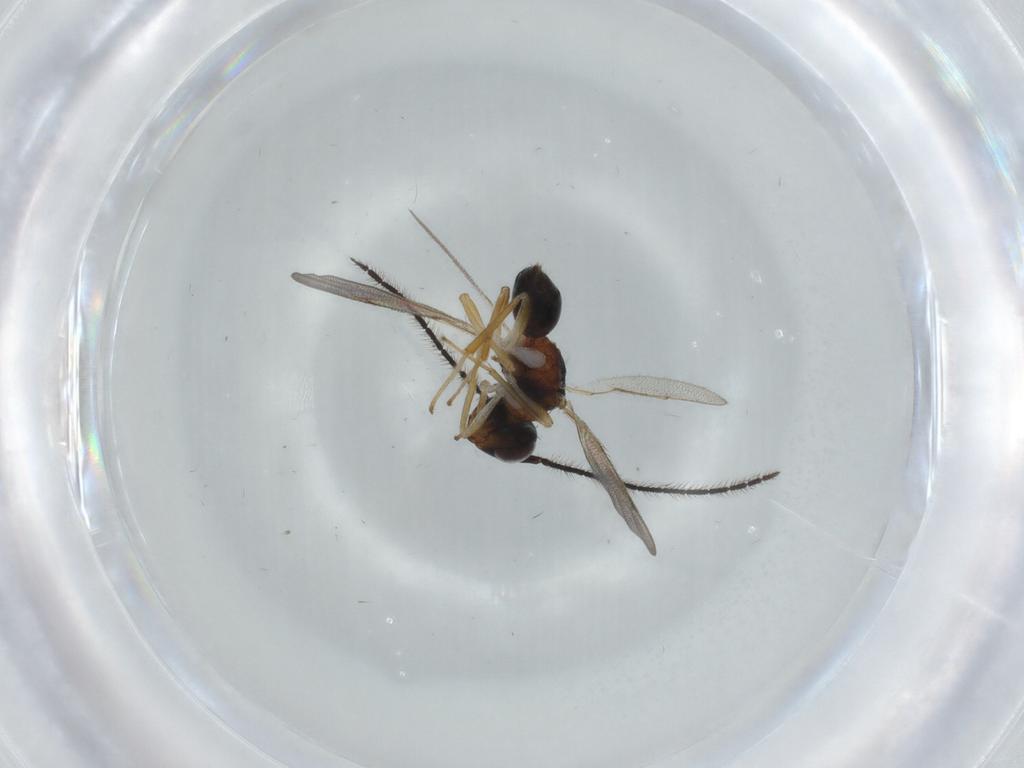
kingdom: Animalia
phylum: Arthropoda
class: Insecta
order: Hymenoptera
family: Diparidae
